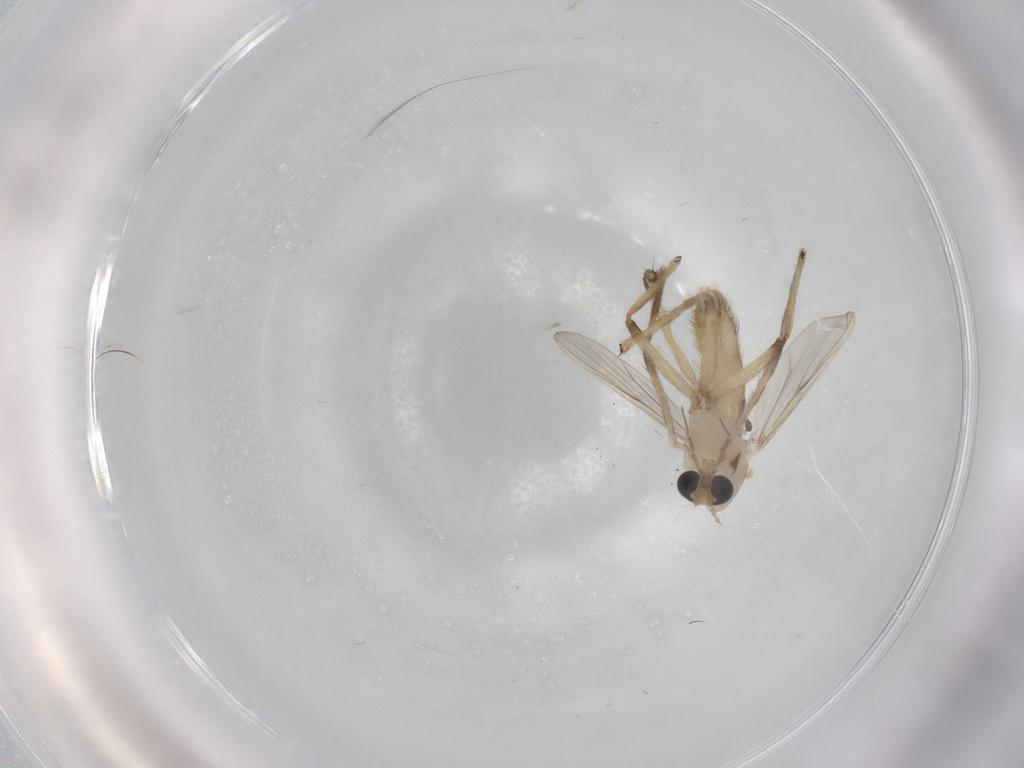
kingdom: Animalia
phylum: Arthropoda
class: Insecta
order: Diptera
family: Chironomidae
